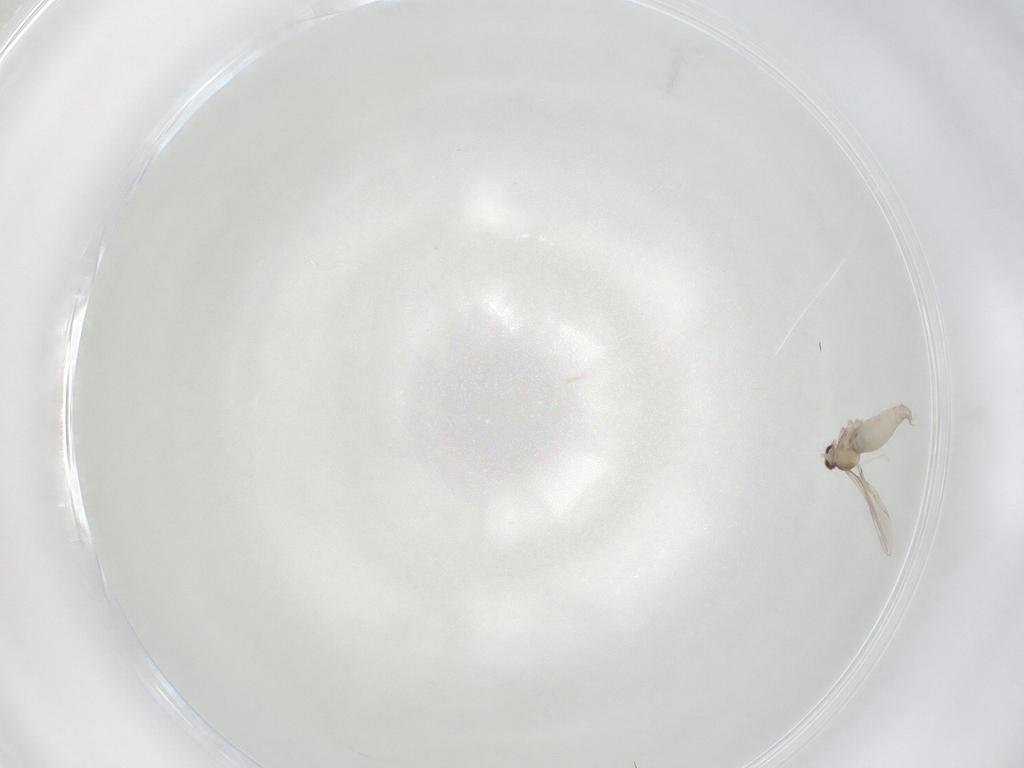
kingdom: Animalia
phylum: Arthropoda
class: Insecta
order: Diptera
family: Cecidomyiidae
